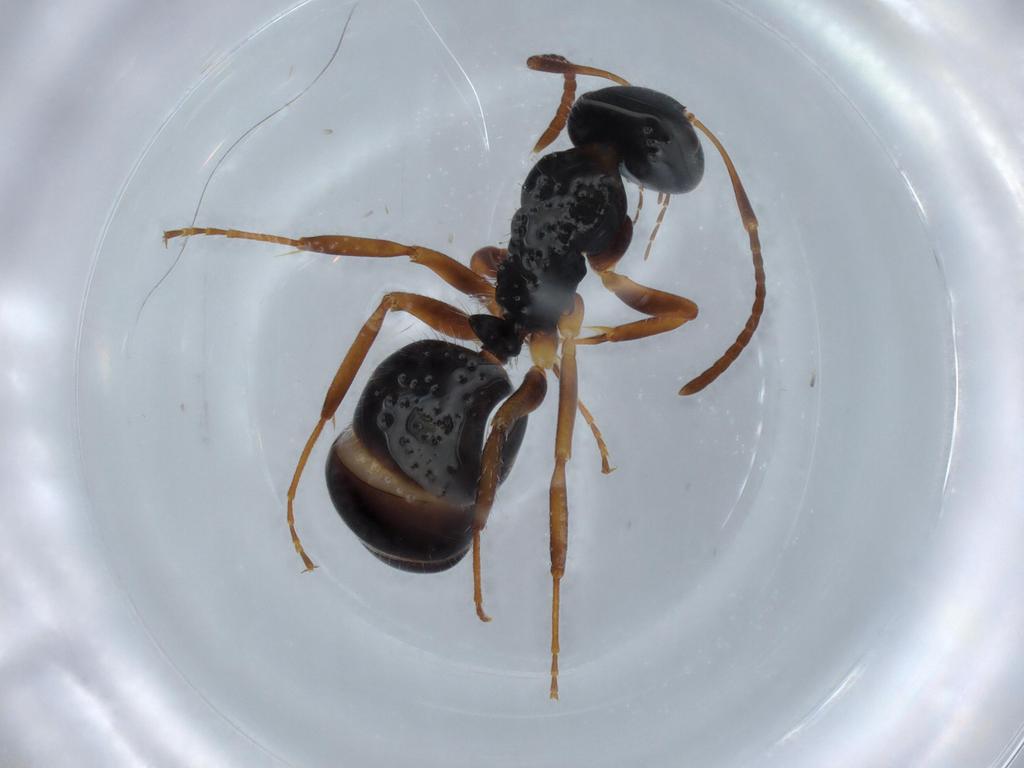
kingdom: Animalia
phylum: Arthropoda
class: Insecta
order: Hymenoptera
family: Formicidae
